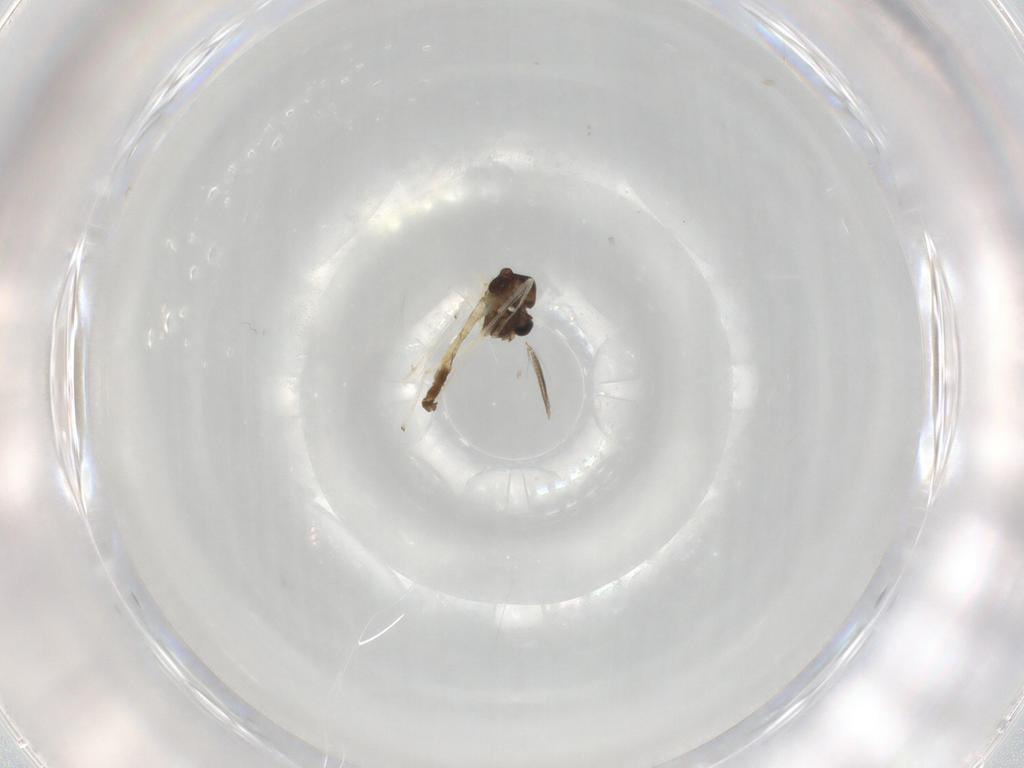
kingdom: Animalia
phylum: Arthropoda
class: Insecta
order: Diptera
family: Chironomidae
